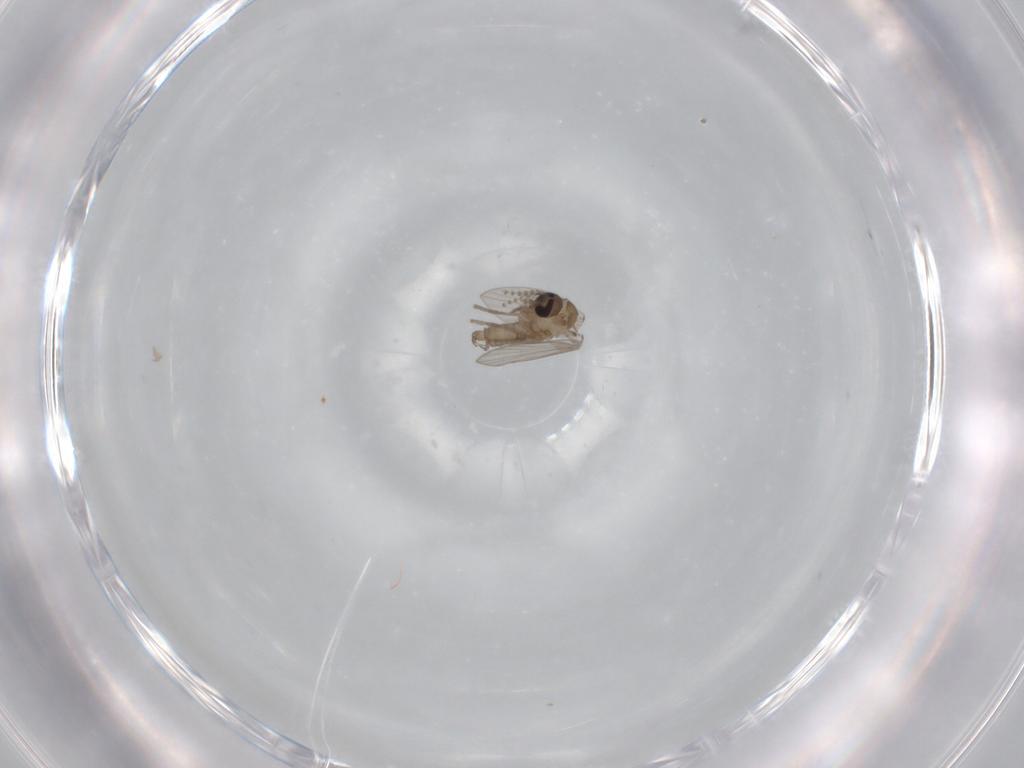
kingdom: Animalia
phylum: Arthropoda
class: Insecta
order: Diptera
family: Psychodidae
